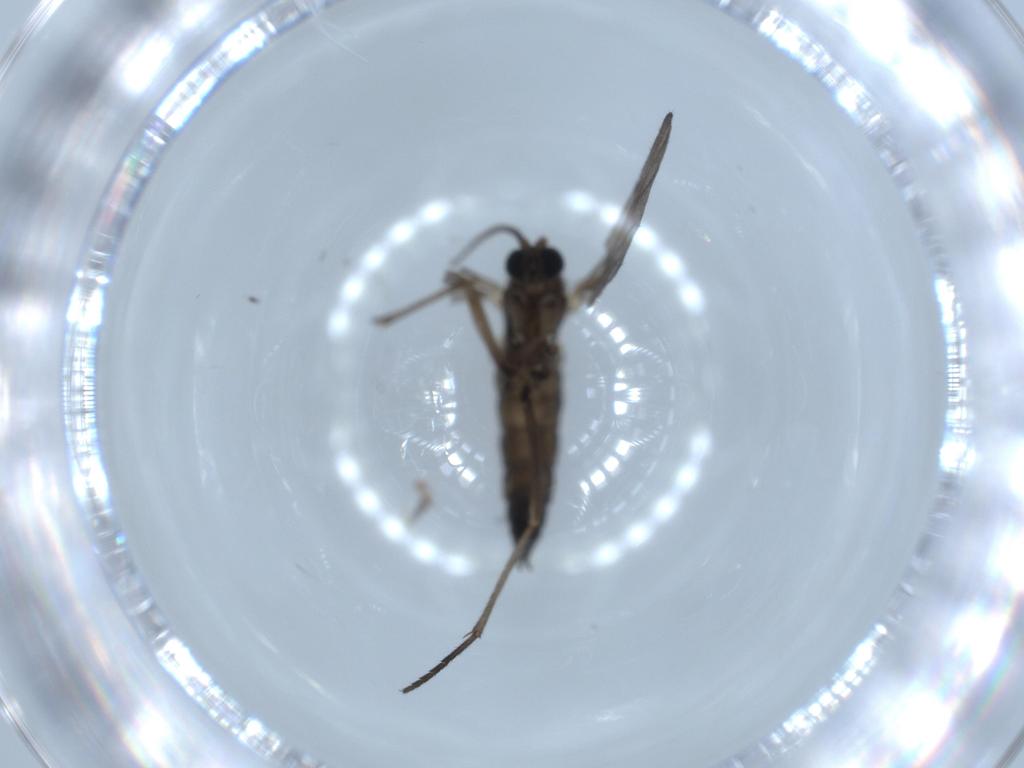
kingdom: Animalia
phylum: Arthropoda
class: Insecta
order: Diptera
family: Sciaridae
